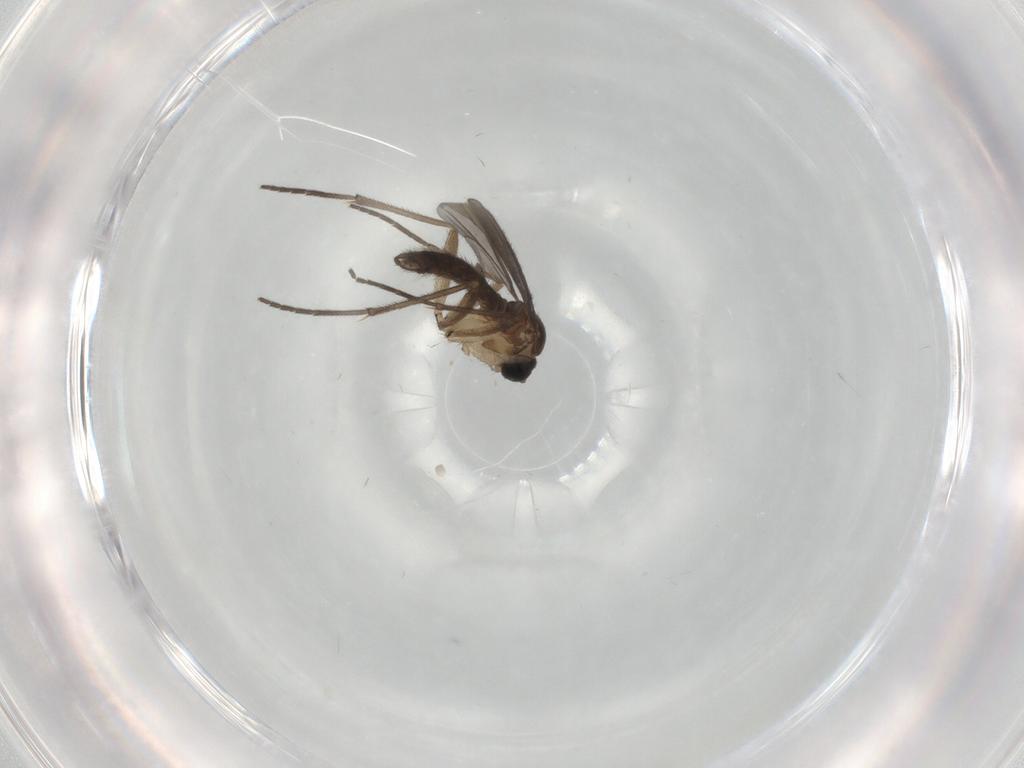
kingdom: Animalia
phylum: Arthropoda
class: Insecta
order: Diptera
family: Sciaridae
